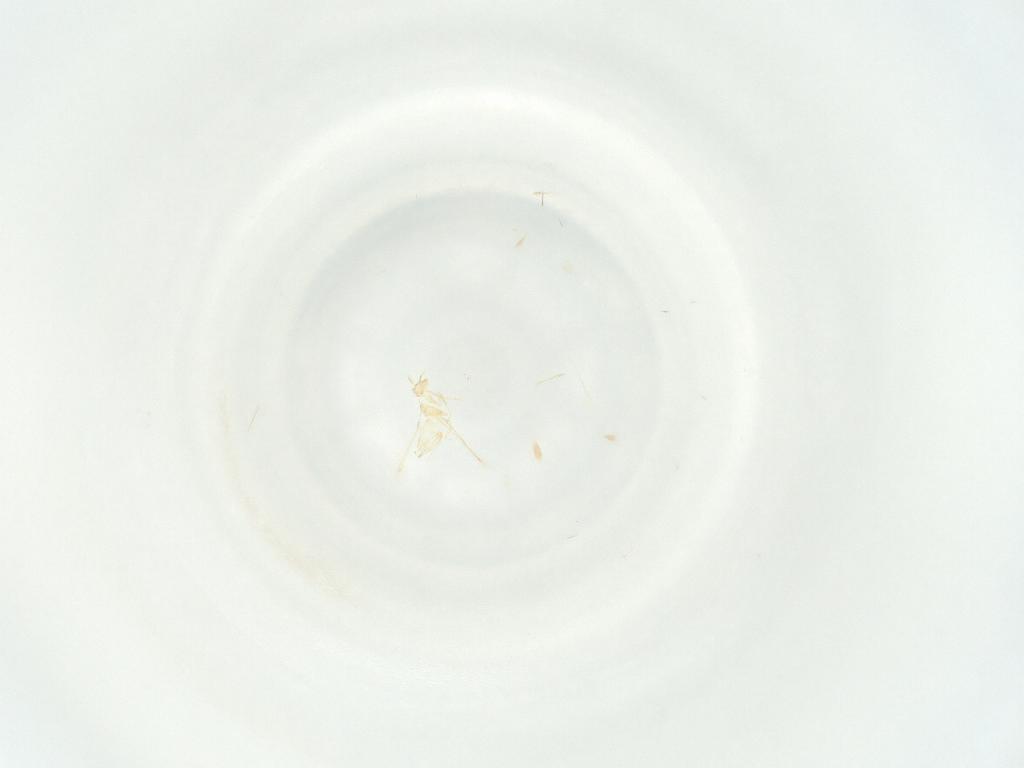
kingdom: Animalia
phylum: Arthropoda
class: Insecta
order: Hymenoptera
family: Mymaridae
